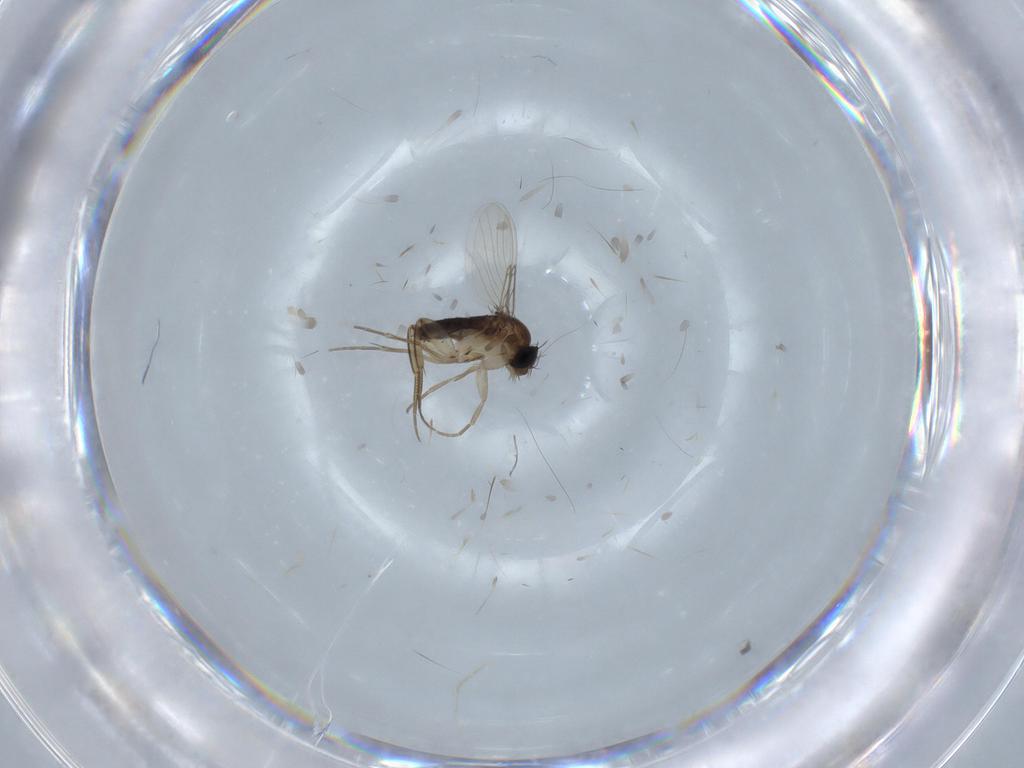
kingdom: Animalia
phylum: Arthropoda
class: Insecta
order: Diptera
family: Phoridae
